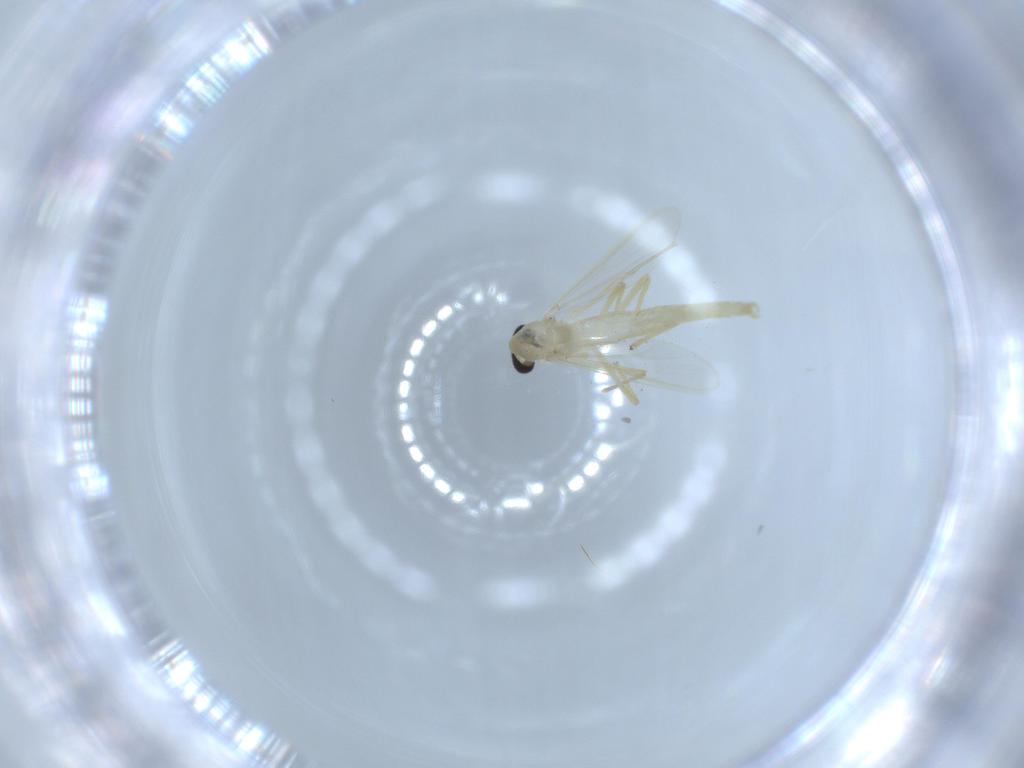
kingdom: Animalia
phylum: Arthropoda
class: Insecta
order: Diptera
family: Chironomidae
